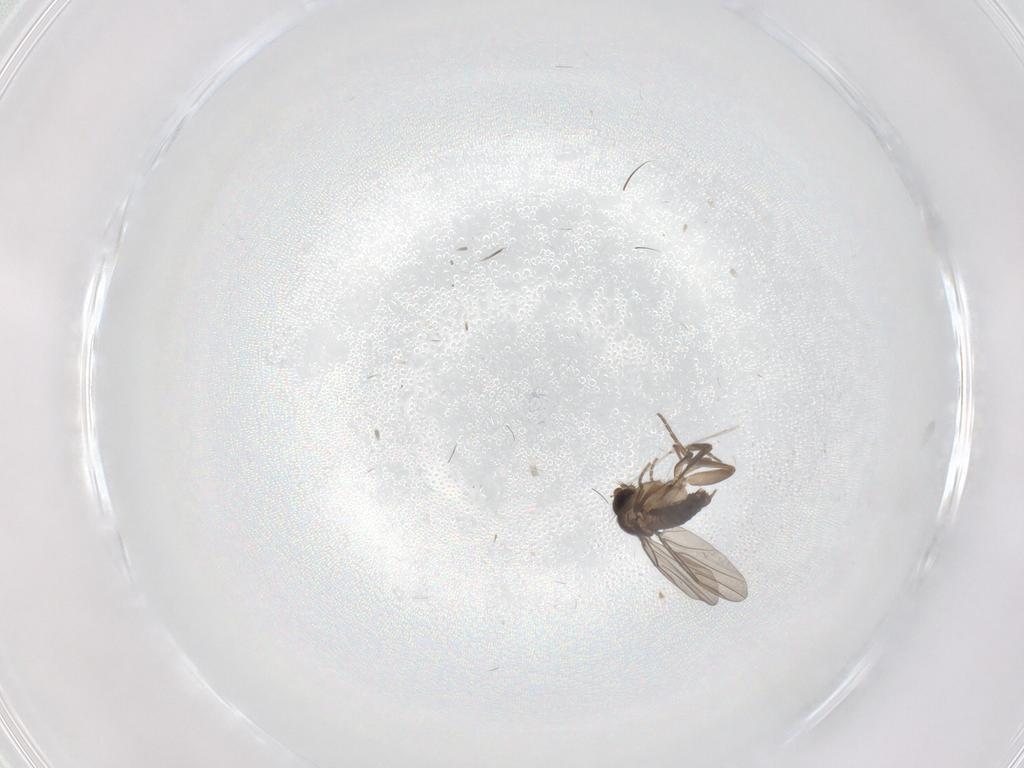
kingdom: Animalia
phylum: Arthropoda
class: Insecta
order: Diptera
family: Phoridae
